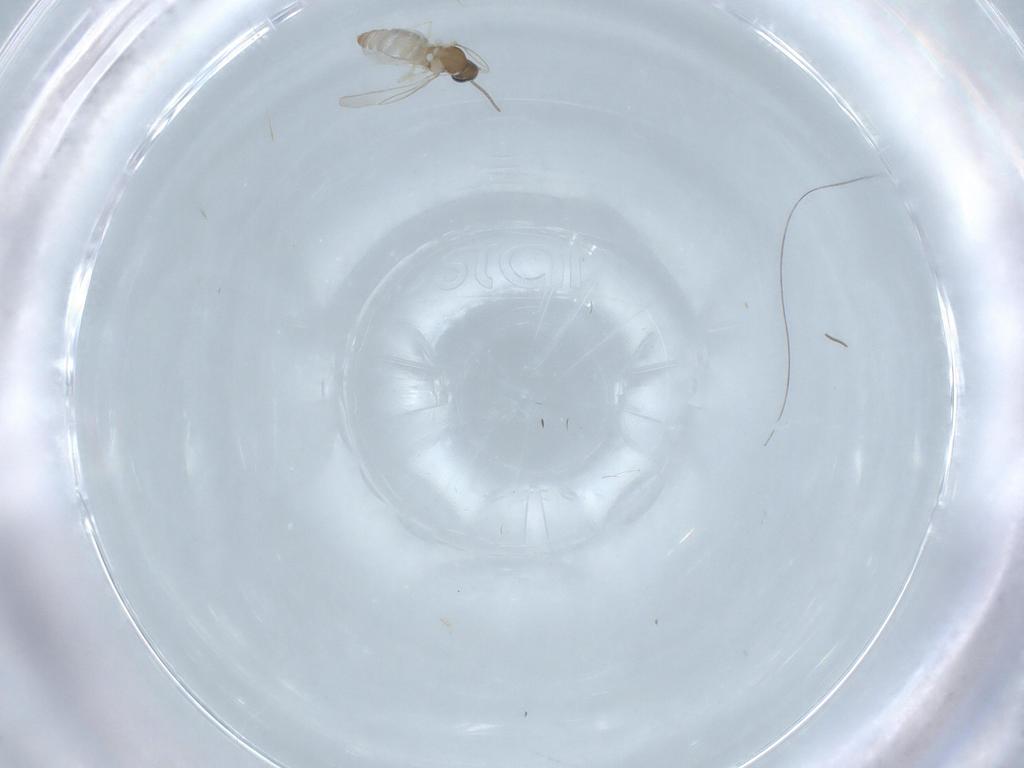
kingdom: Animalia
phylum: Arthropoda
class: Insecta
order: Diptera
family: Cecidomyiidae
